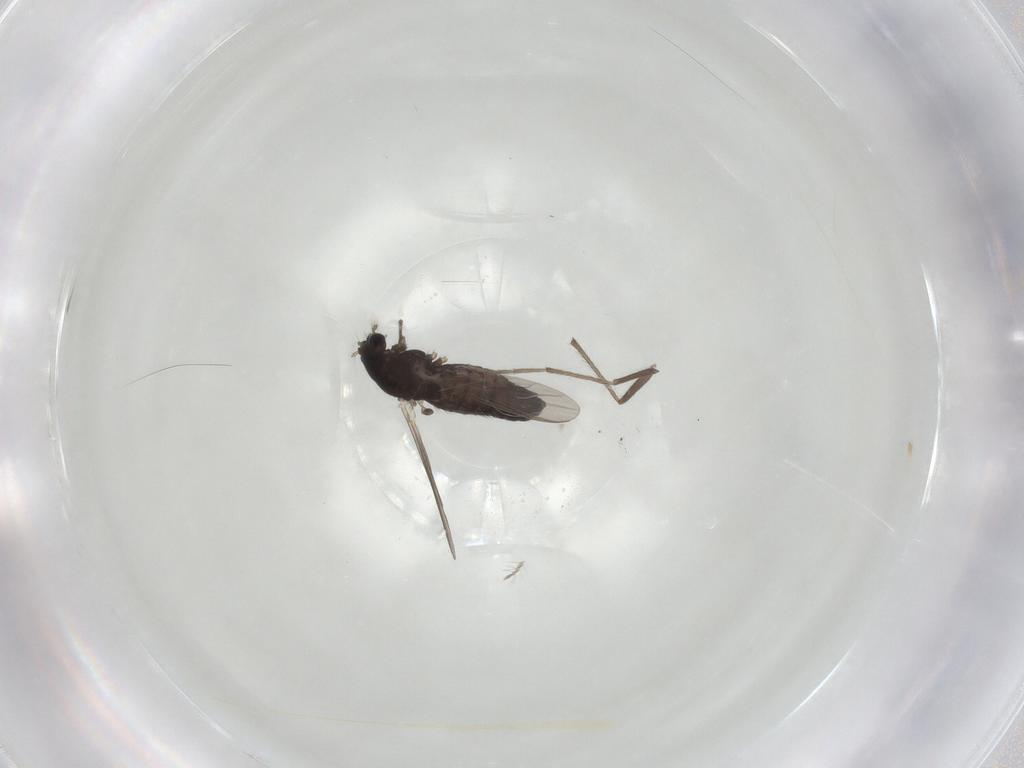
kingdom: Animalia
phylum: Arthropoda
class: Insecta
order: Diptera
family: Chironomidae
